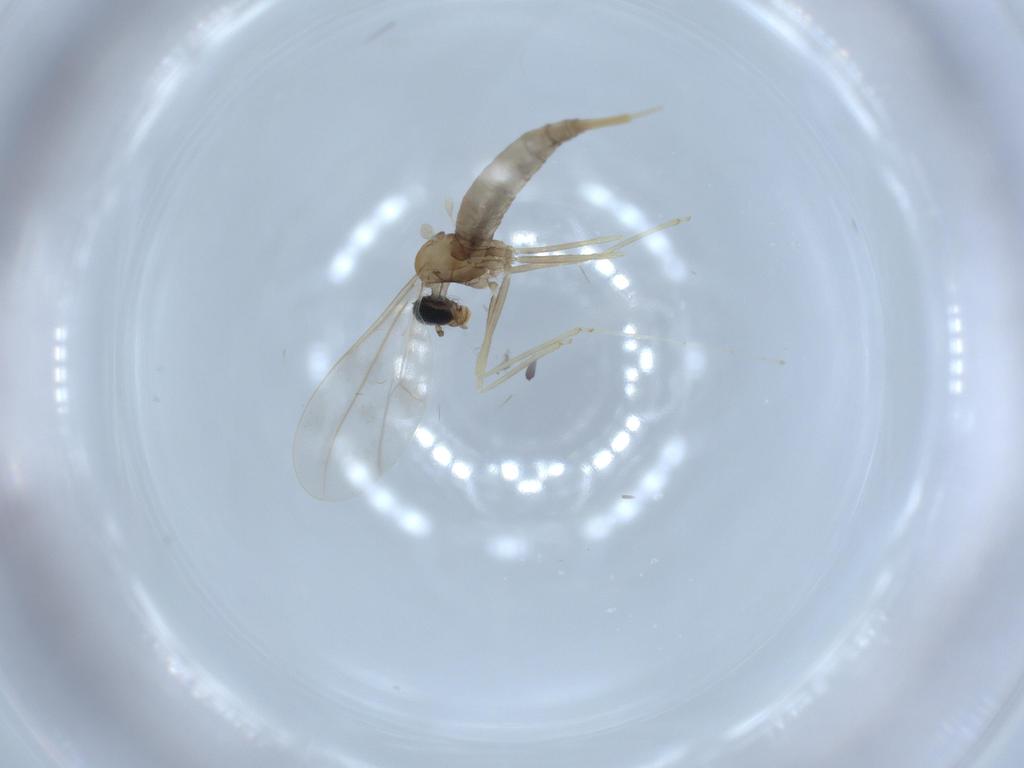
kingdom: Animalia
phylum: Arthropoda
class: Insecta
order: Diptera
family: Cecidomyiidae
